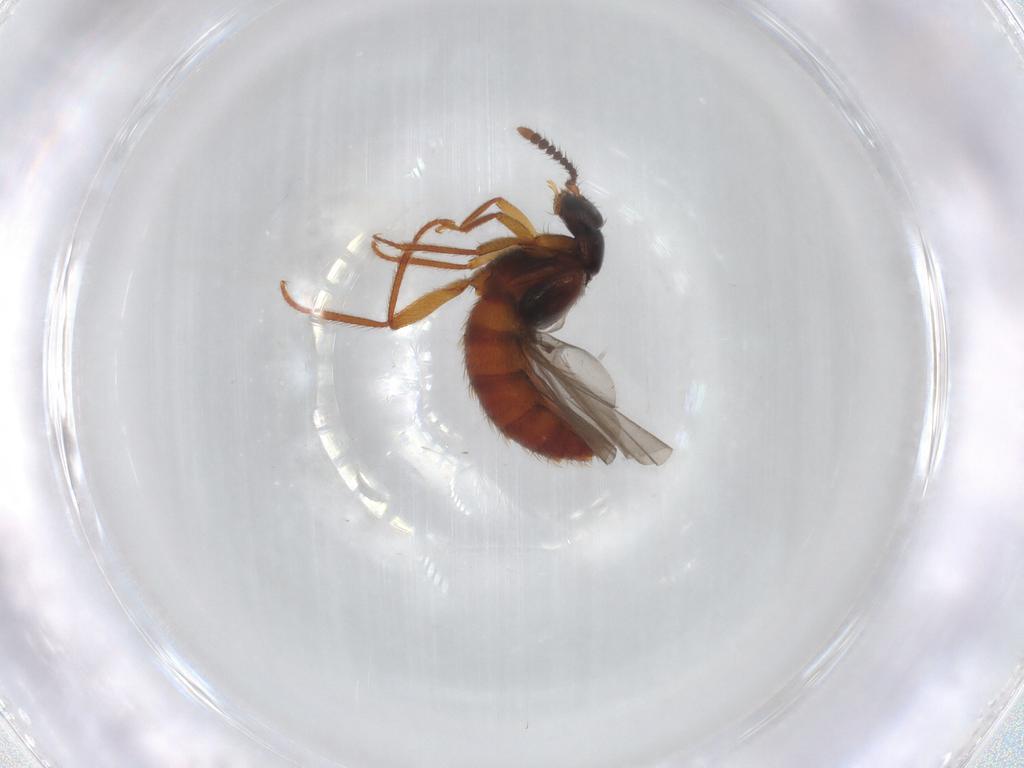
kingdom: Animalia
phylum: Arthropoda
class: Insecta
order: Coleoptera
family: Staphylinidae
